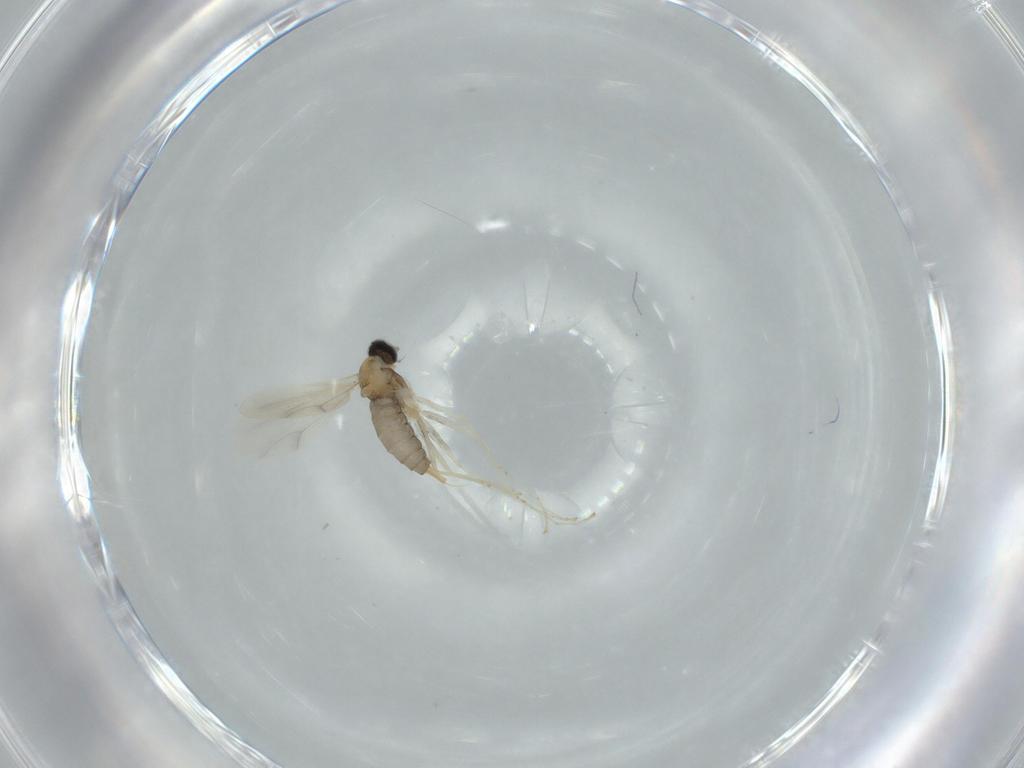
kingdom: Animalia
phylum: Arthropoda
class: Insecta
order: Diptera
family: Cecidomyiidae
